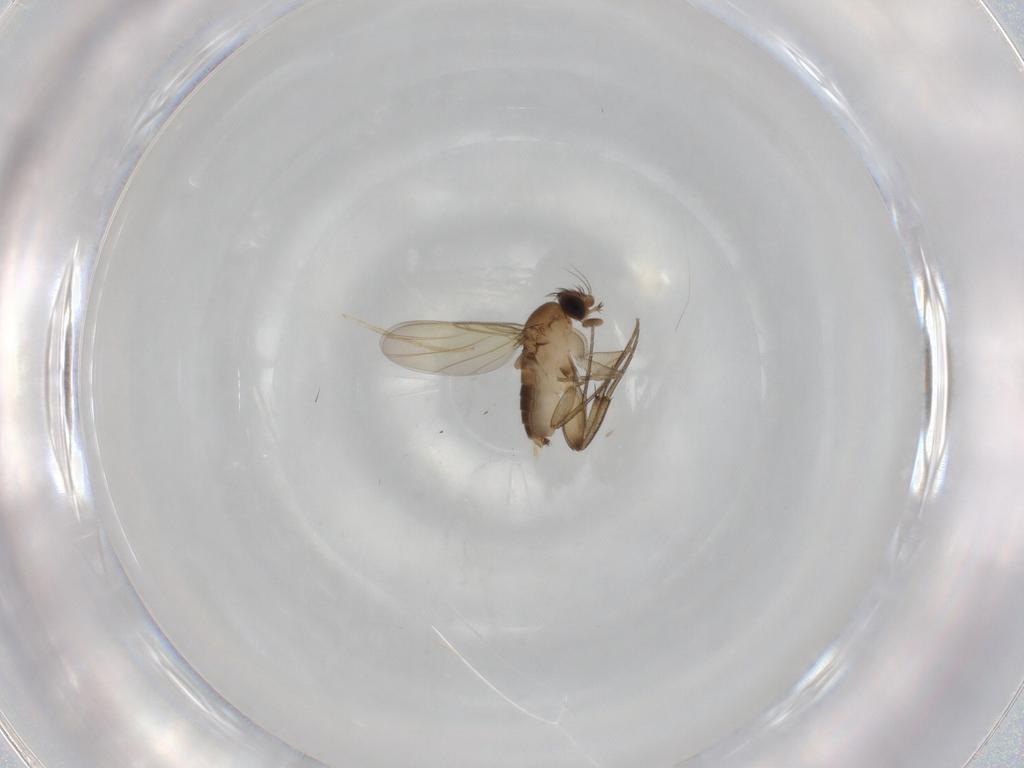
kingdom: Animalia
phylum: Arthropoda
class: Insecta
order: Diptera
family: Phoridae
